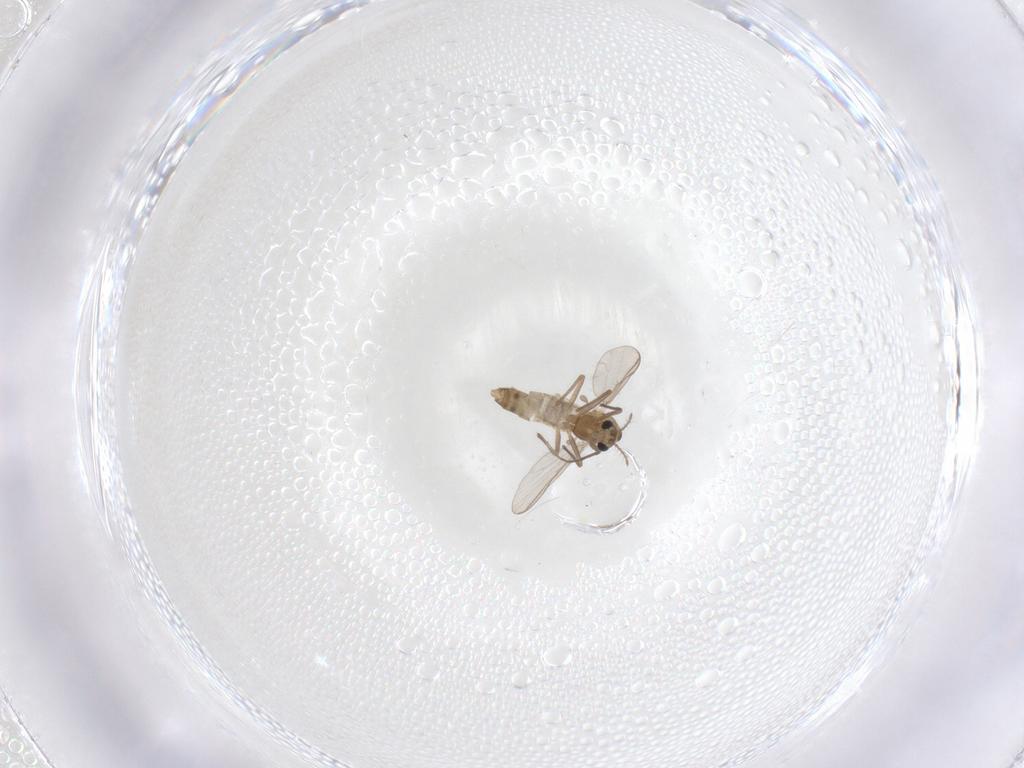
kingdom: Animalia
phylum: Arthropoda
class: Insecta
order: Diptera
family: Chironomidae
